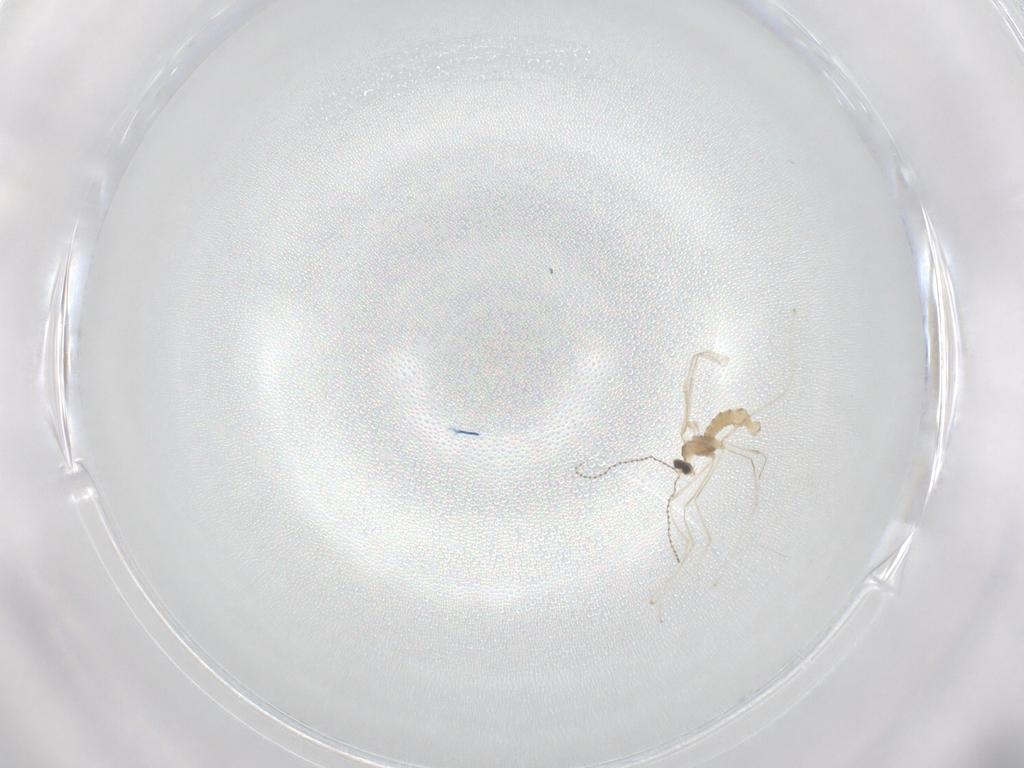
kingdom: Animalia
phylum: Arthropoda
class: Insecta
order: Diptera
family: Cecidomyiidae
